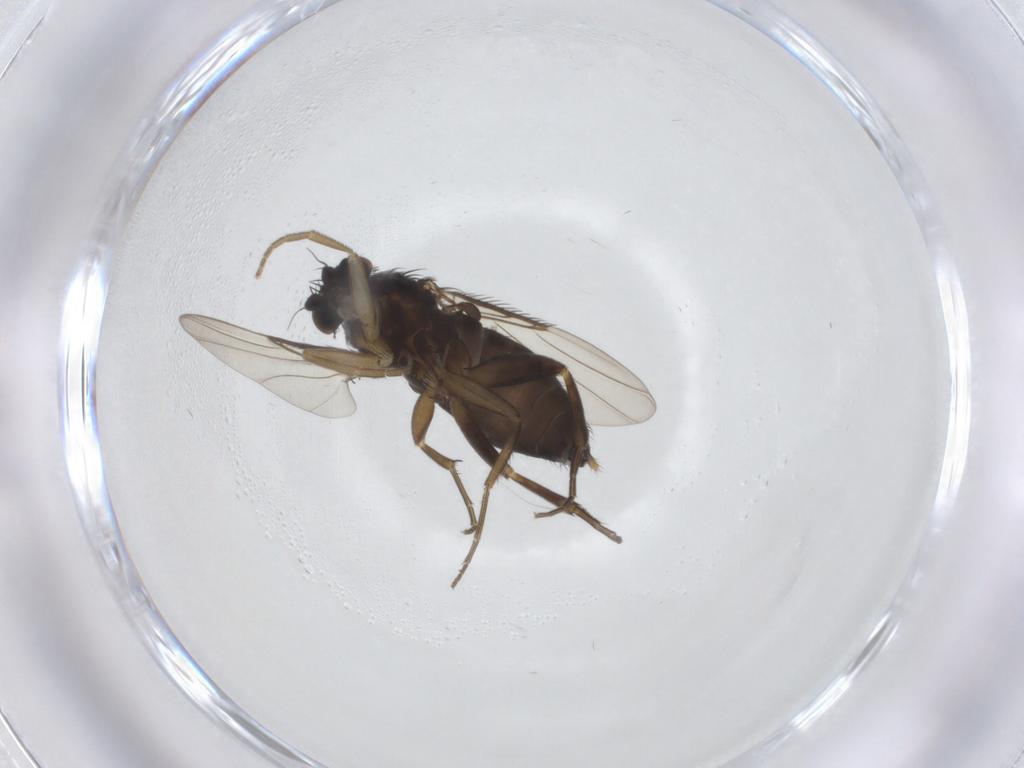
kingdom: Animalia
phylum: Arthropoda
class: Insecta
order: Diptera
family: Phoridae
